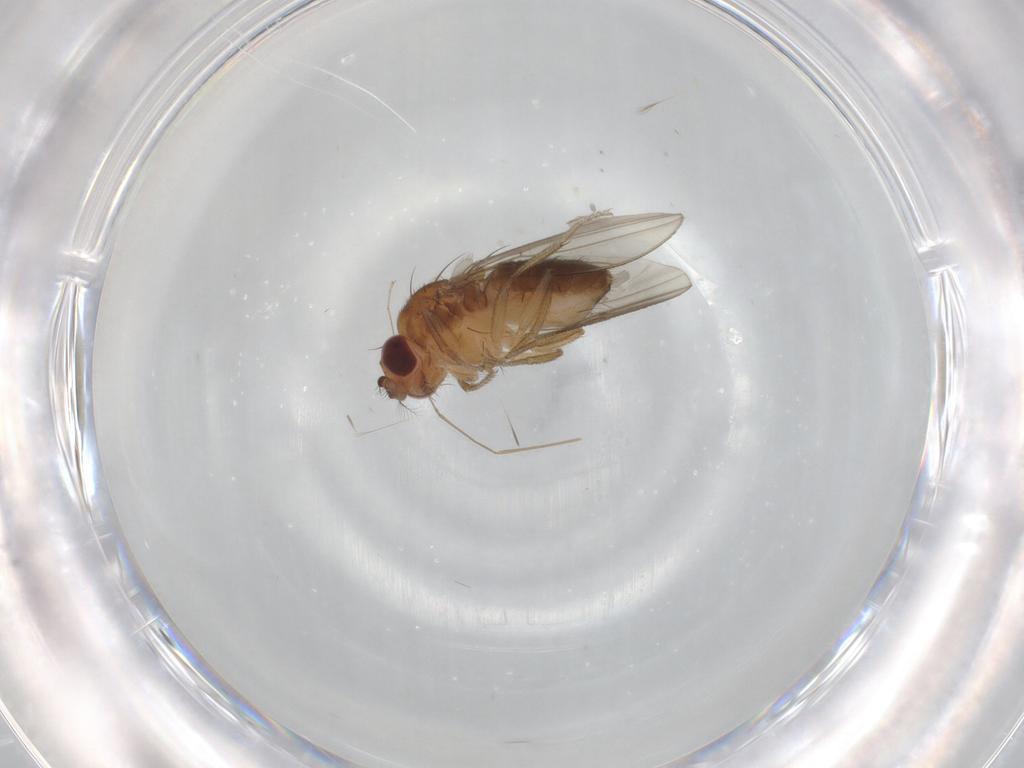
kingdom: Animalia
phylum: Arthropoda
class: Insecta
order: Diptera
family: Drosophilidae
